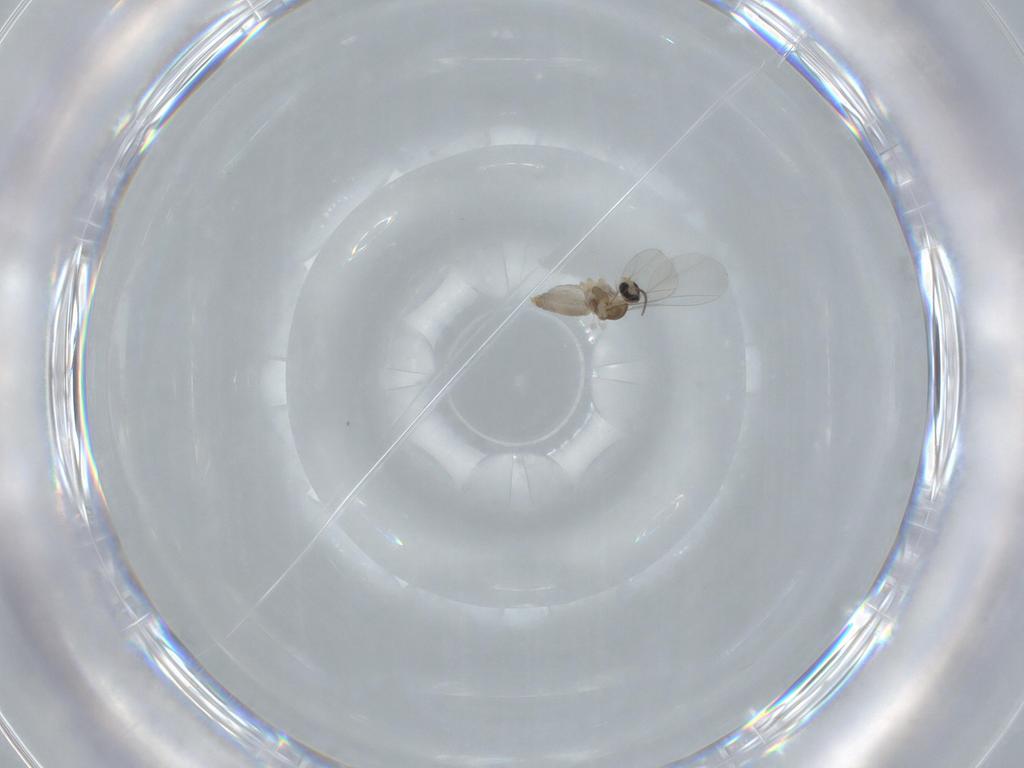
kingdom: Animalia
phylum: Arthropoda
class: Insecta
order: Diptera
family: Cecidomyiidae
